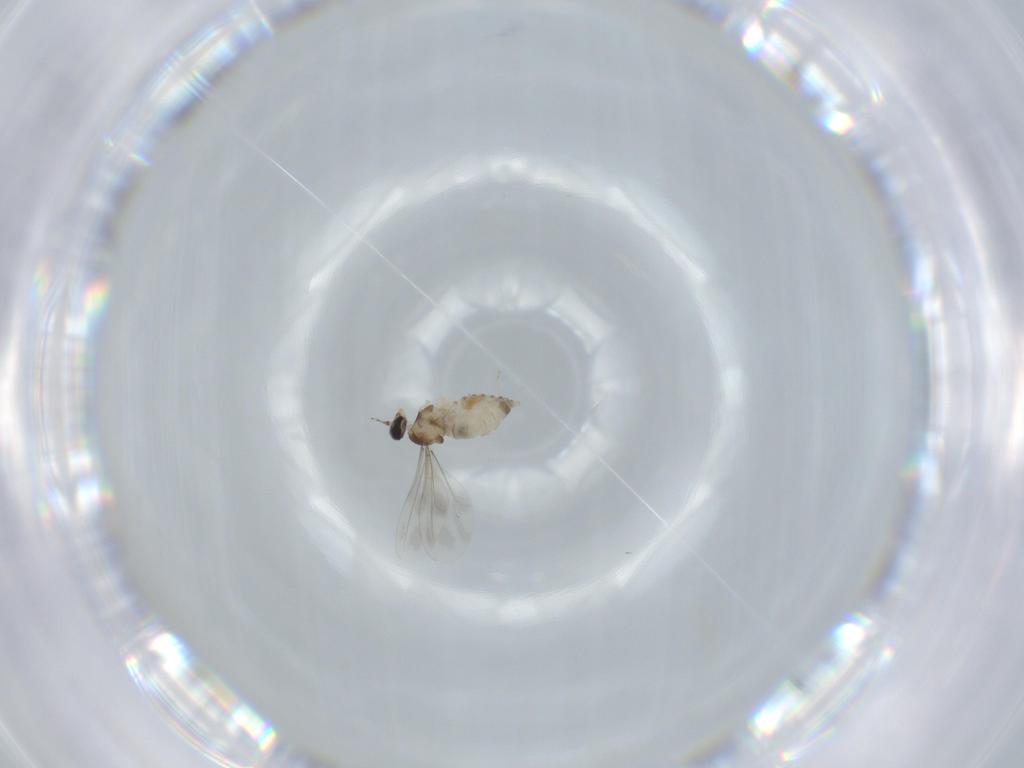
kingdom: Animalia
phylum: Arthropoda
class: Insecta
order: Diptera
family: Cecidomyiidae
